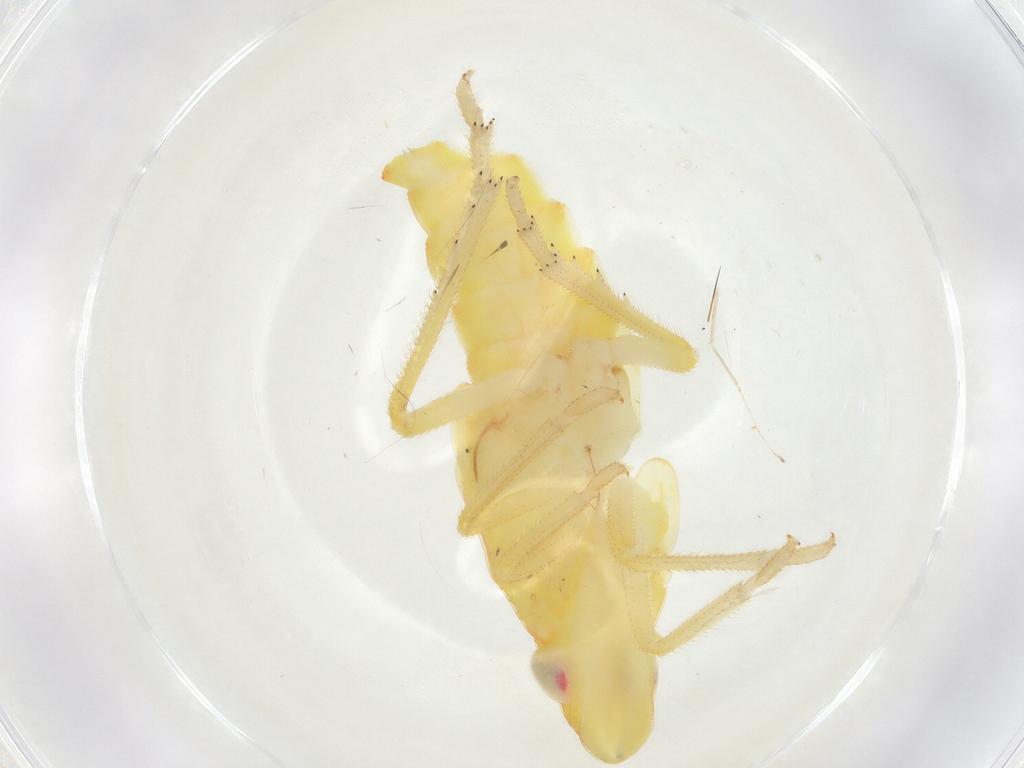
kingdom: Animalia
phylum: Arthropoda
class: Insecta
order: Hemiptera
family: Tropiduchidae
